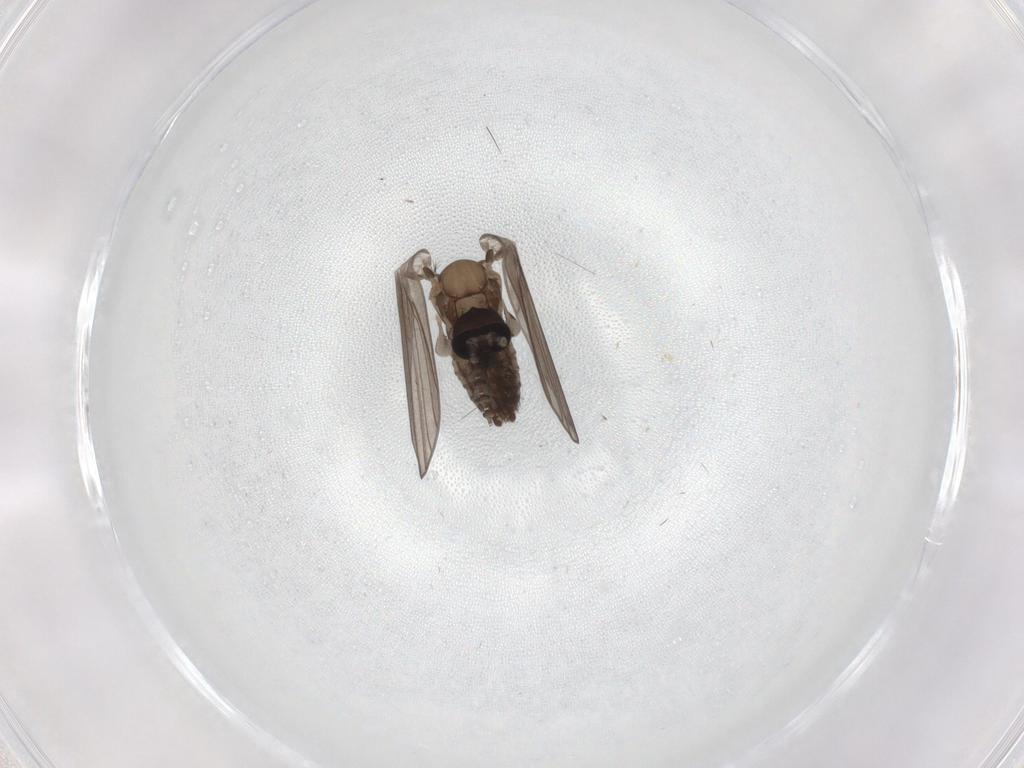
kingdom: Animalia
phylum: Arthropoda
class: Insecta
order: Diptera
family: Psychodidae
